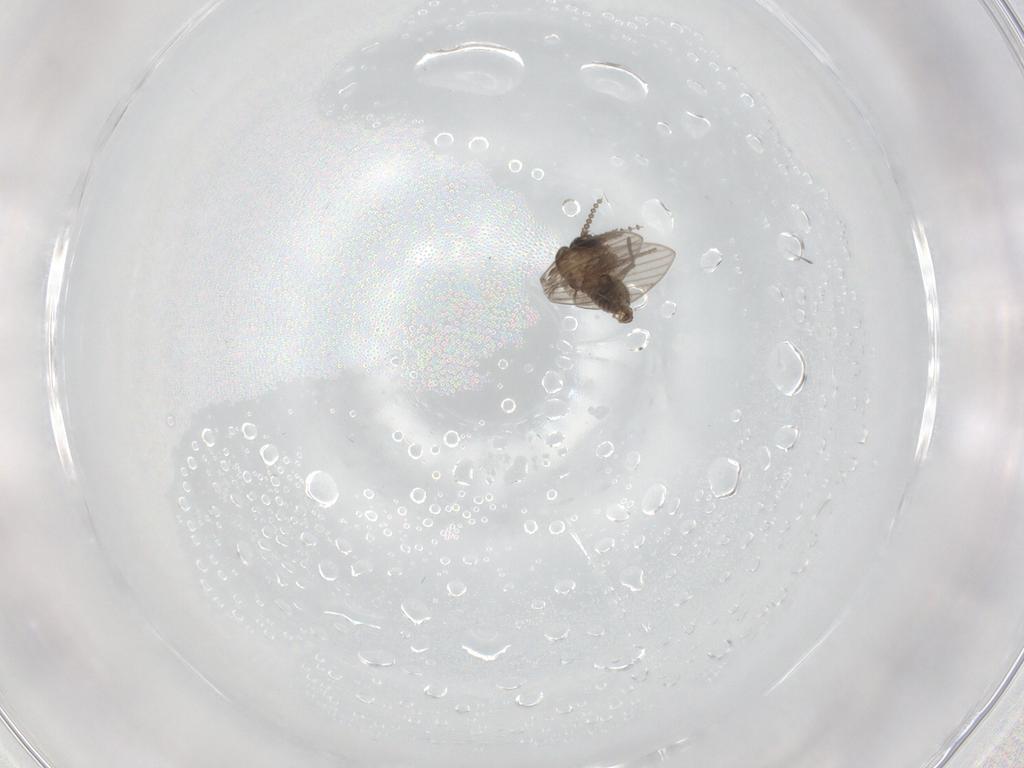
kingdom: Animalia
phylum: Arthropoda
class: Insecta
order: Diptera
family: Psychodidae
